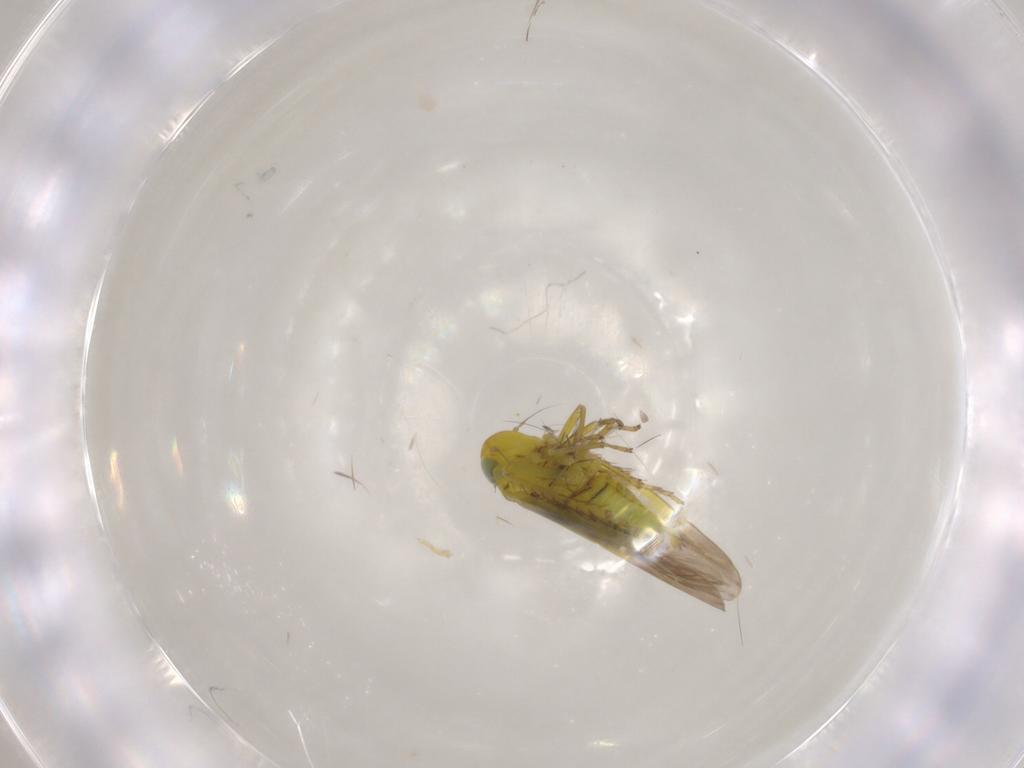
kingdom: Animalia
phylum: Arthropoda
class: Insecta
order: Hemiptera
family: Cicadellidae
